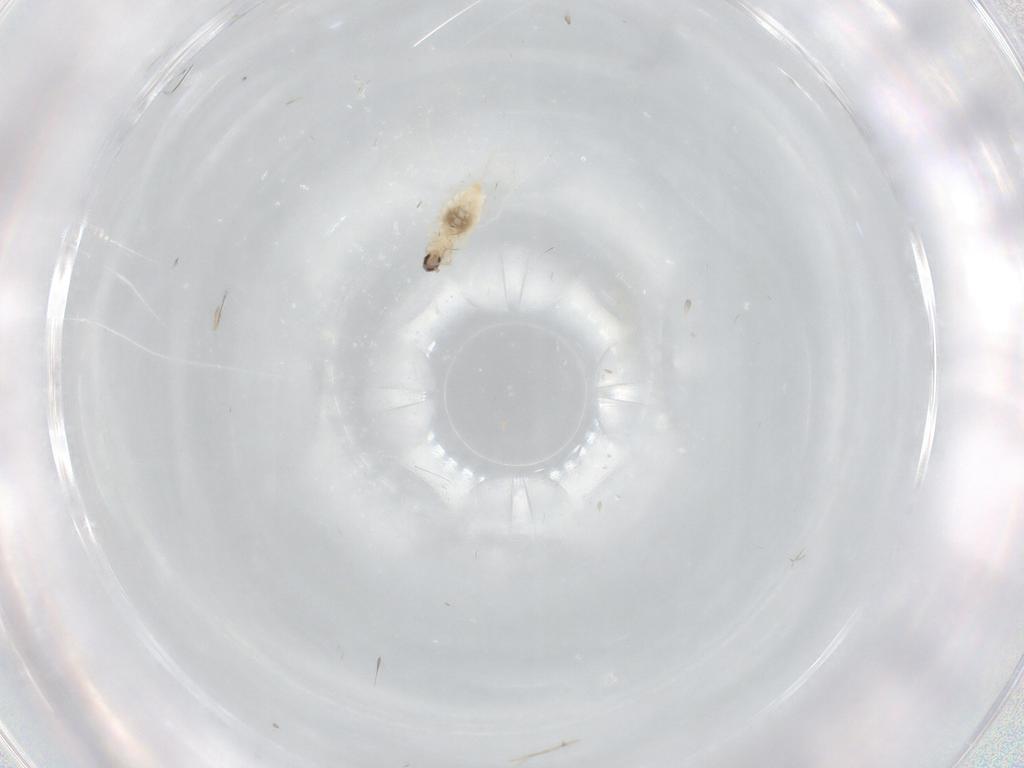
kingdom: Animalia
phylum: Arthropoda
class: Insecta
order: Diptera
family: Cecidomyiidae
